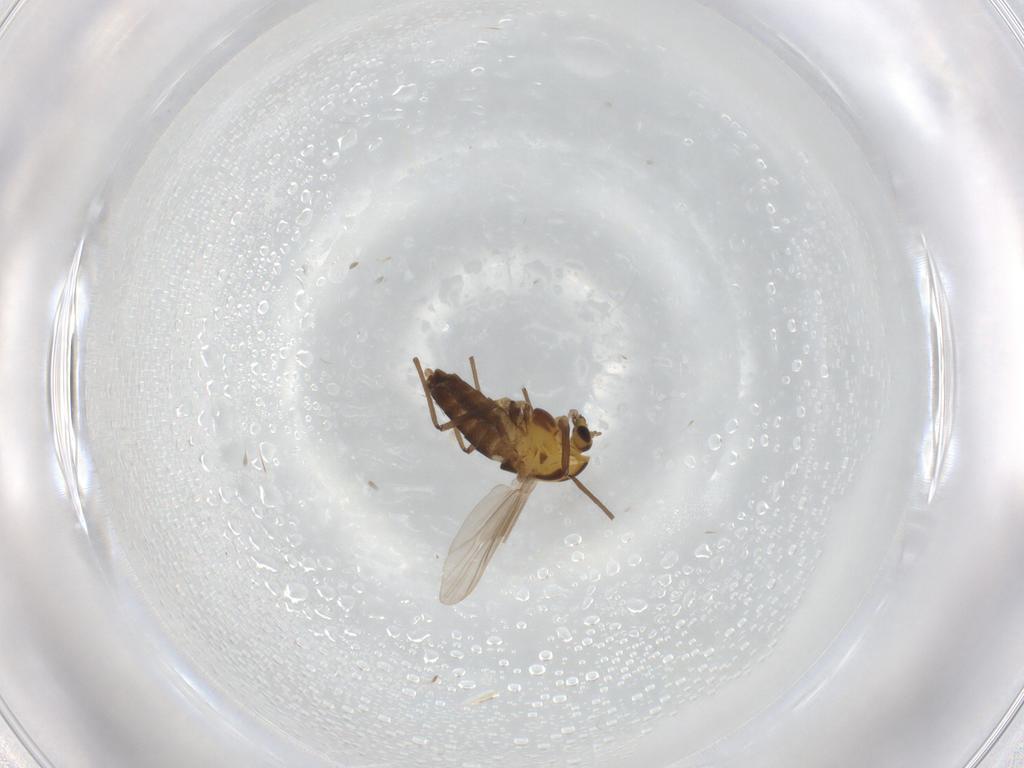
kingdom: Animalia
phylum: Arthropoda
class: Insecta
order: Diptera
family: Chironomidae
